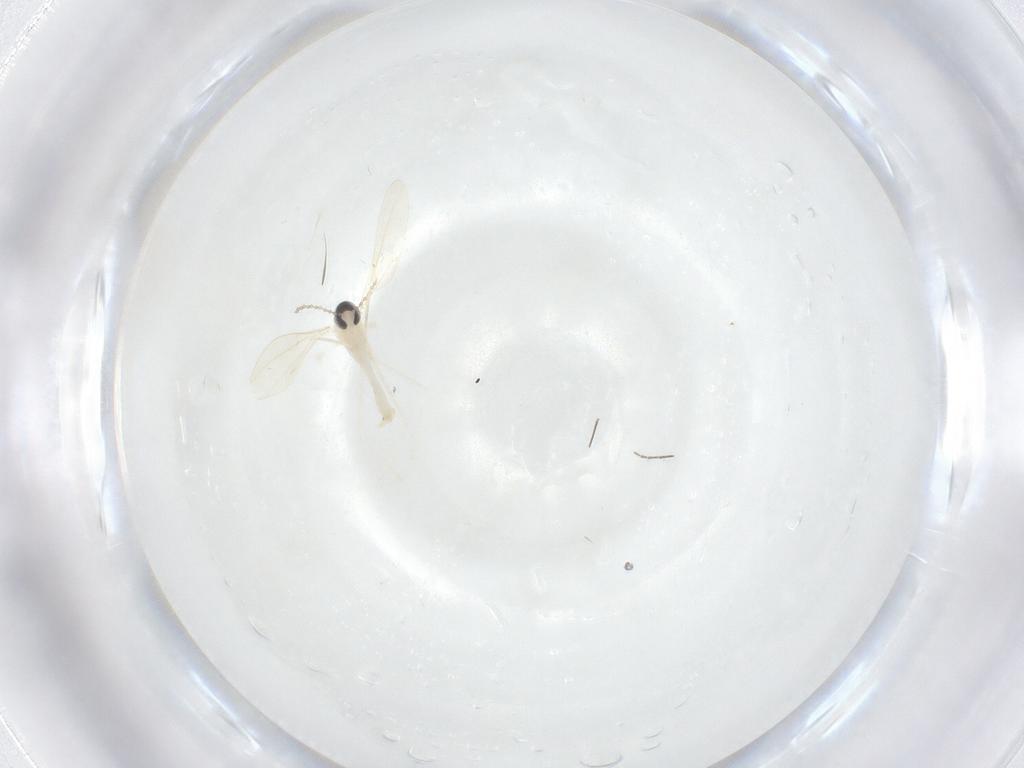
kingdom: Animalia
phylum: Arthropoda
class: Insecta
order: Diptera
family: Cecidomyiidae
